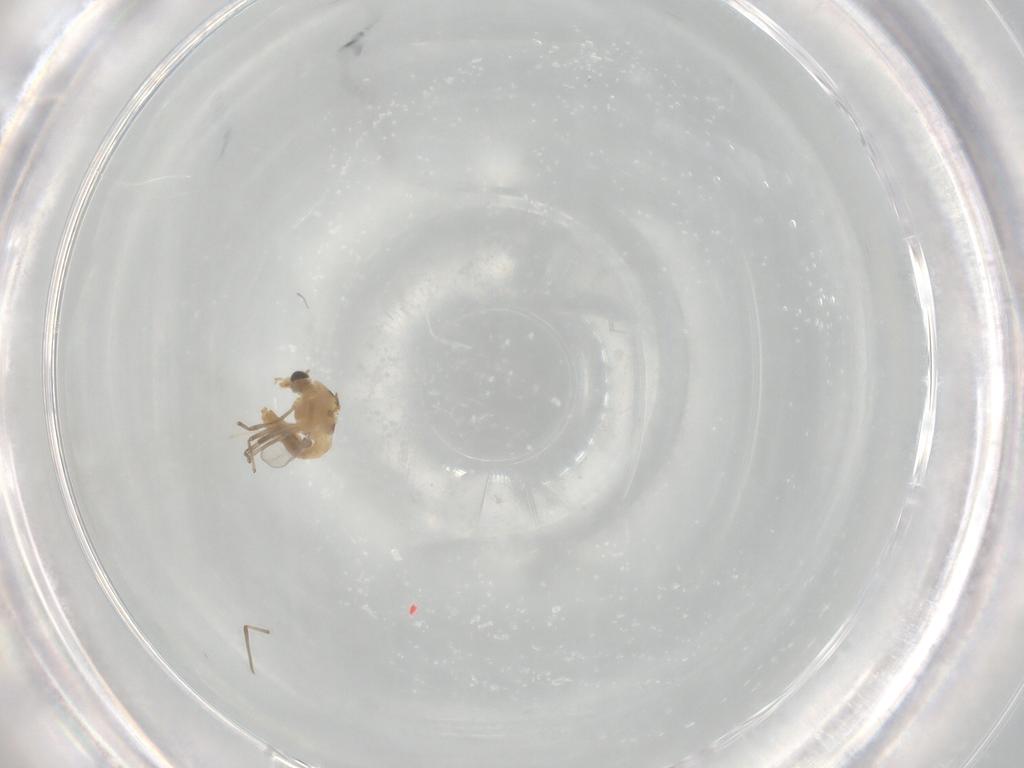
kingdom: Animalia
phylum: Arthropoda
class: Insecta
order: Diptera
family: Chironomidae
